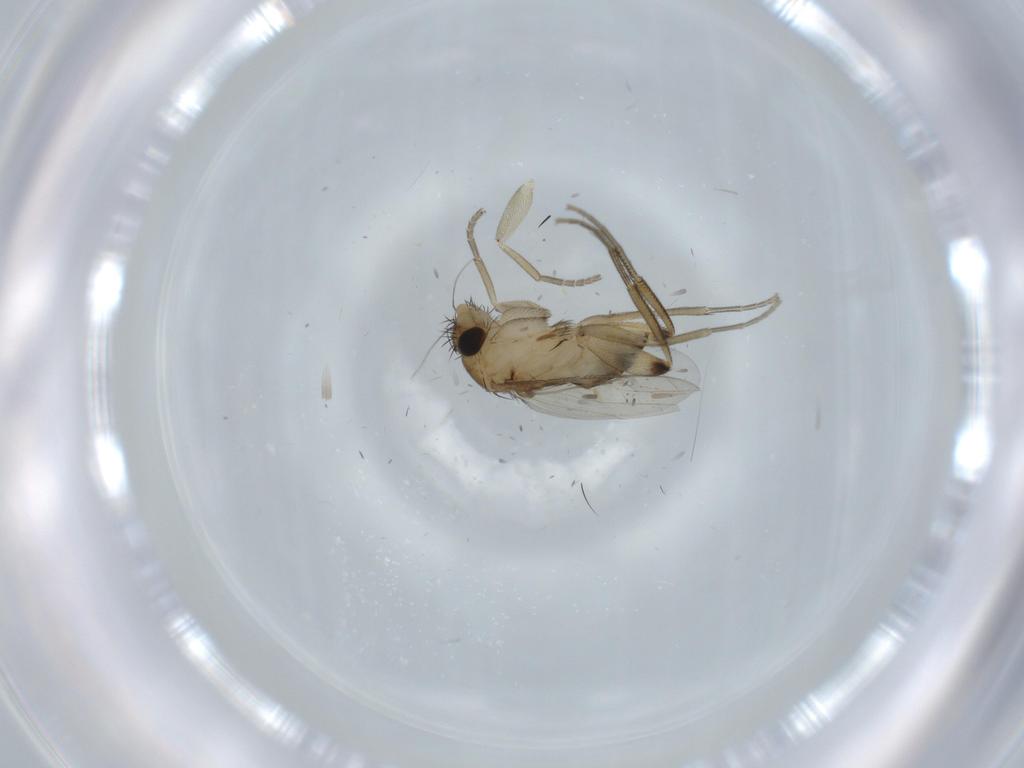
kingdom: Animalia
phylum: Arthropoda
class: Insecta
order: Diptera
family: Phoridae
